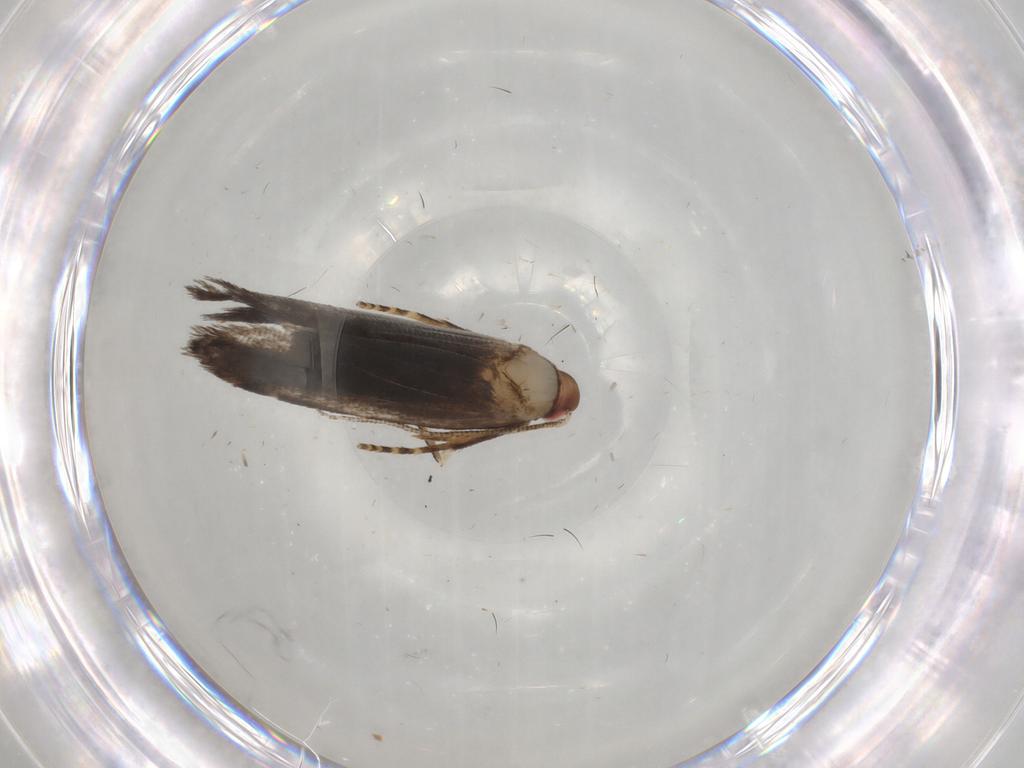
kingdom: Animalia
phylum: Arthropoda
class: Insecta
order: Lepidoptera
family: Gelechiidae
